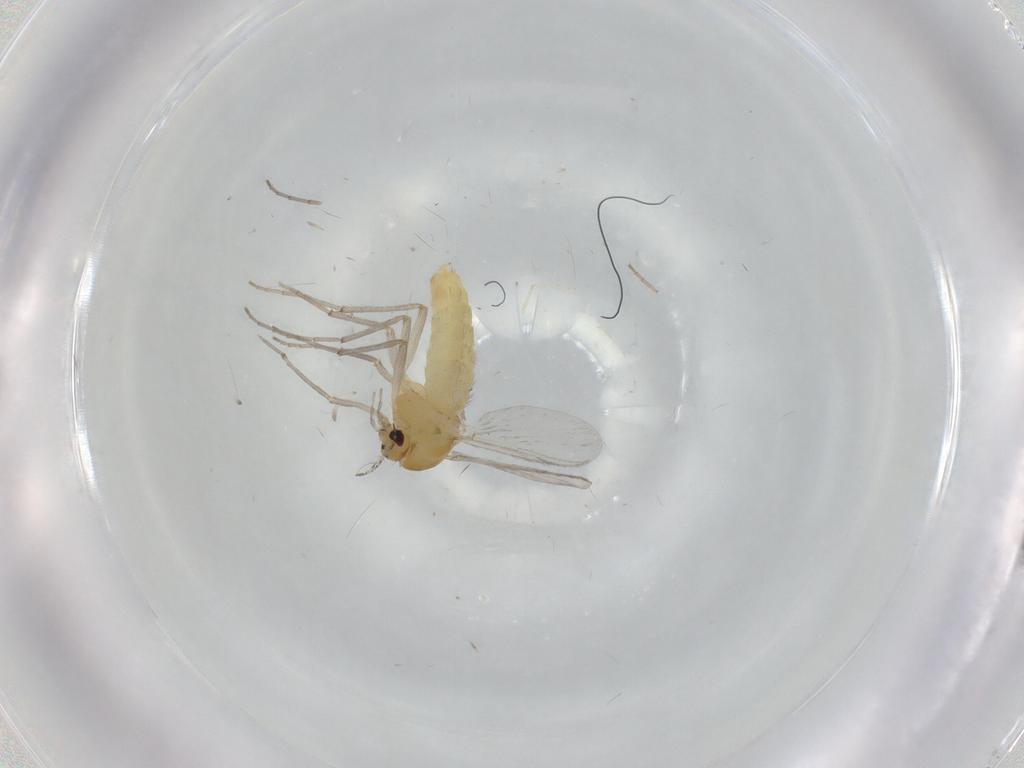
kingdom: Animalia
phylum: Arthropoda
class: Insecta
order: Diptera
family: Chironomidae
